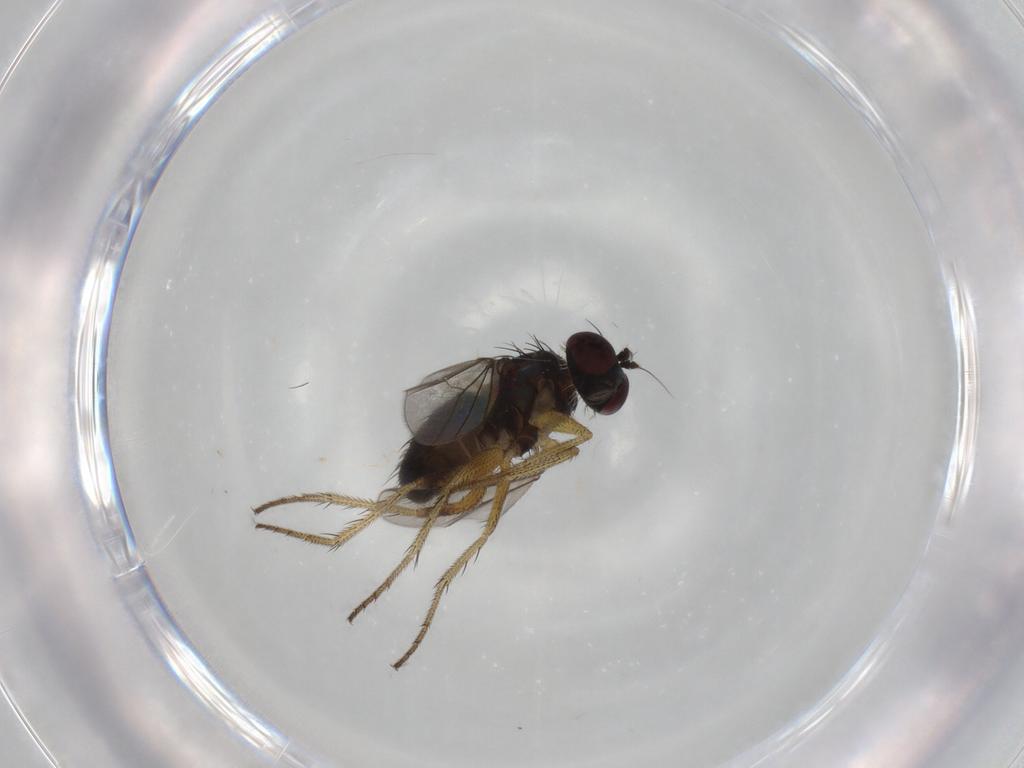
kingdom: Animalia
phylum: Arthropoda
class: Insecta
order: Diptera
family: Dolichopodidae
